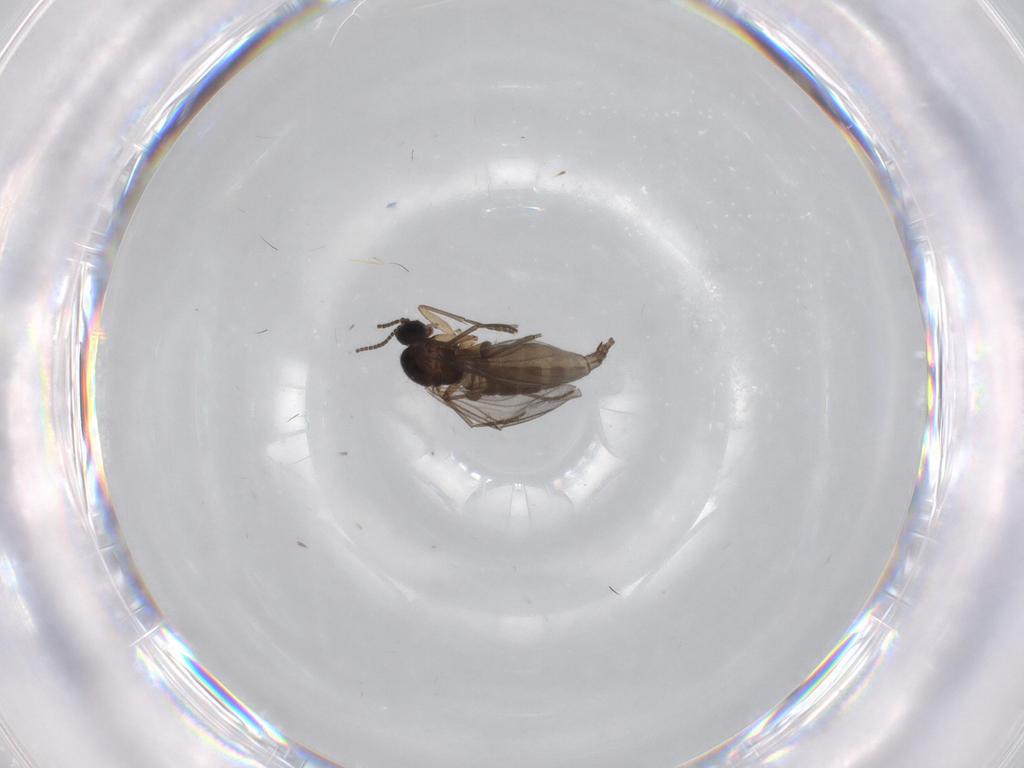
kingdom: Animalia
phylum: Arthropoda
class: Insecta
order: Diptera
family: Sciaridae
